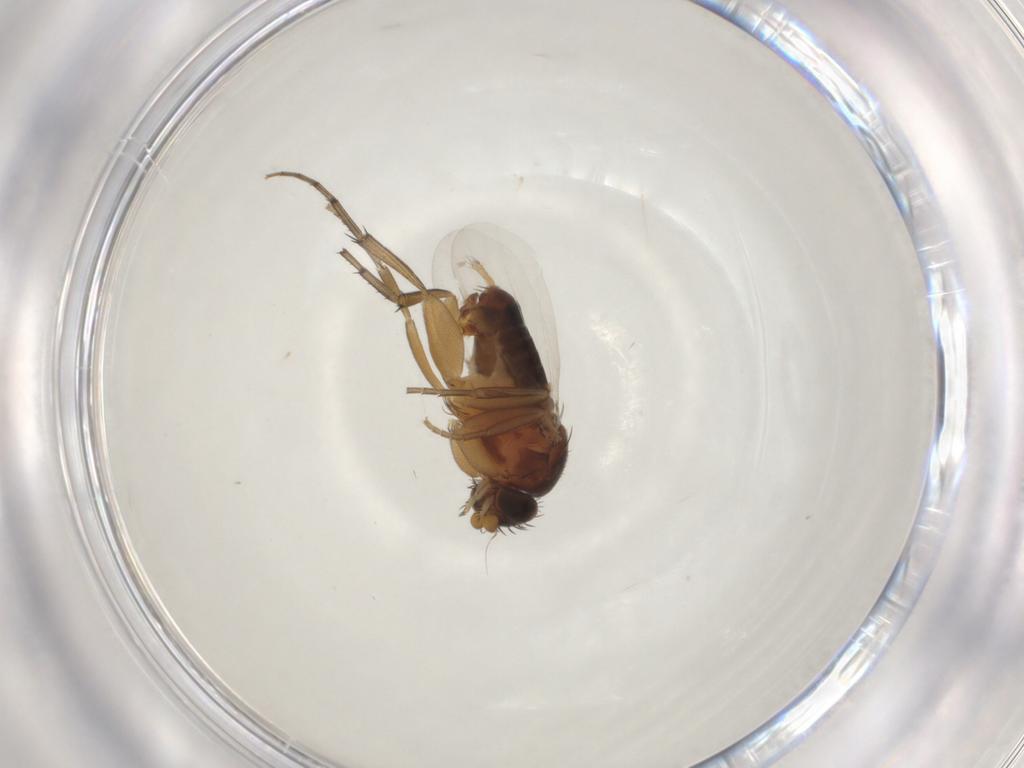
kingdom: Animalia
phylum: Arthropoda
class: Insecta
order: Diptera
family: Phoridae
